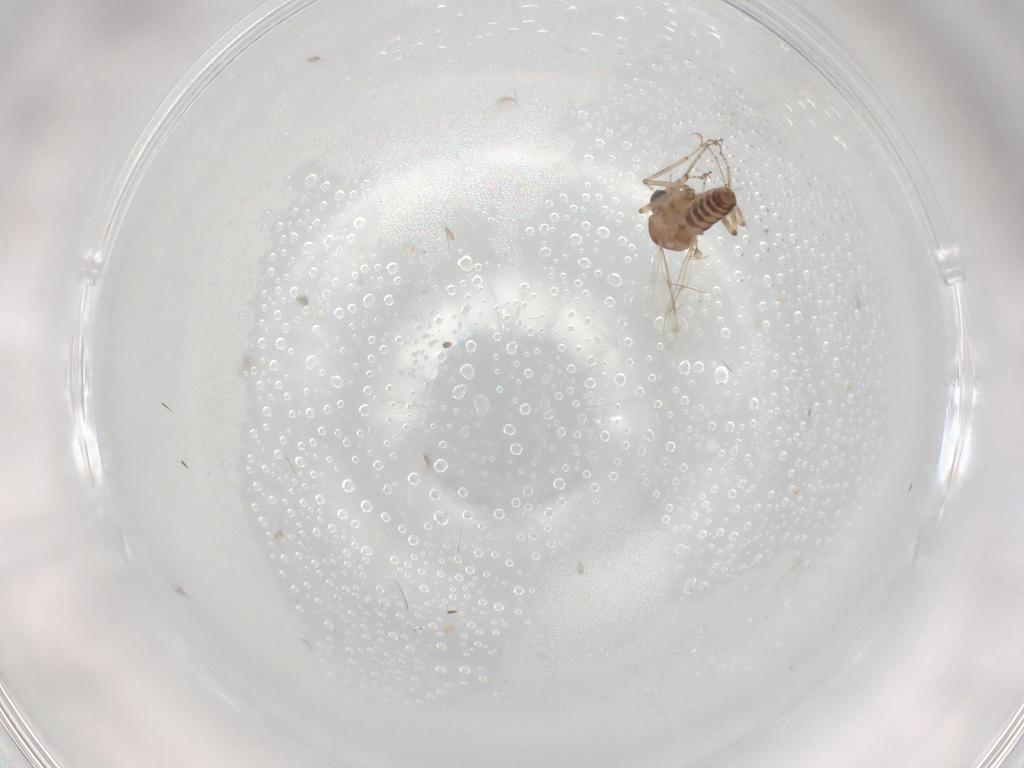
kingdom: Animalia
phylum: Arthropoda
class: Insecta
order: Diptera
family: Ceratopogonidae
